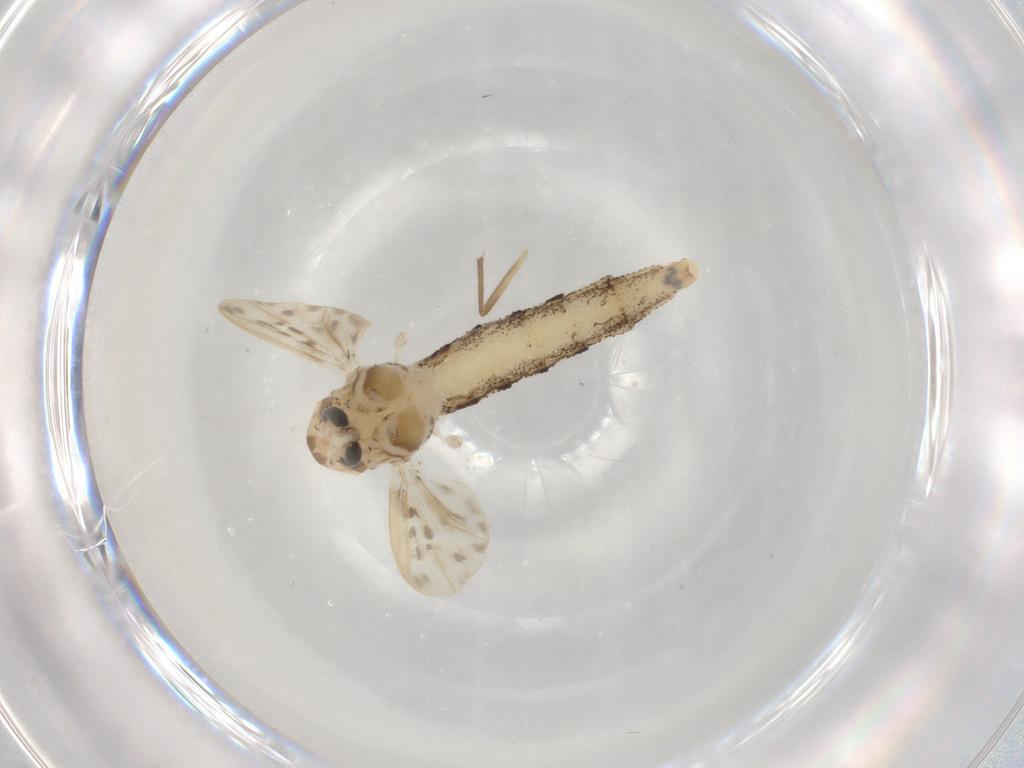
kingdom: Animalia
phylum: Arthropoda
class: Insecta
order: Diptera
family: Chaoboridae
